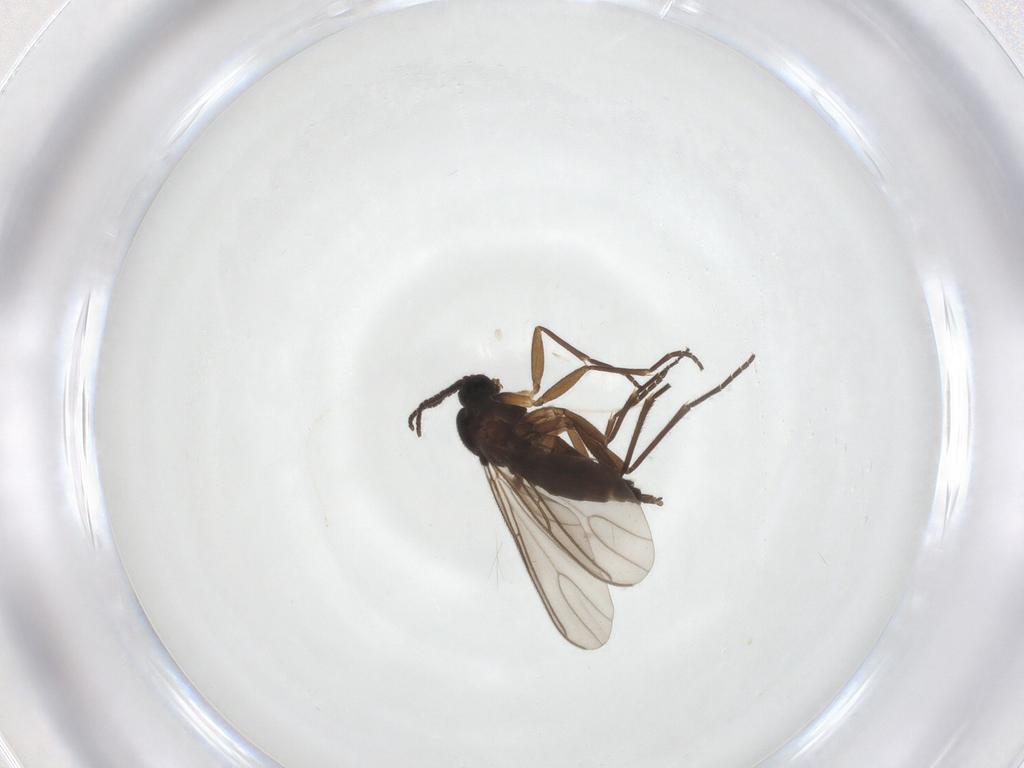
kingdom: Animalia
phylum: Arthropoda
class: Insecta
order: Diptera
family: Sciaridae
